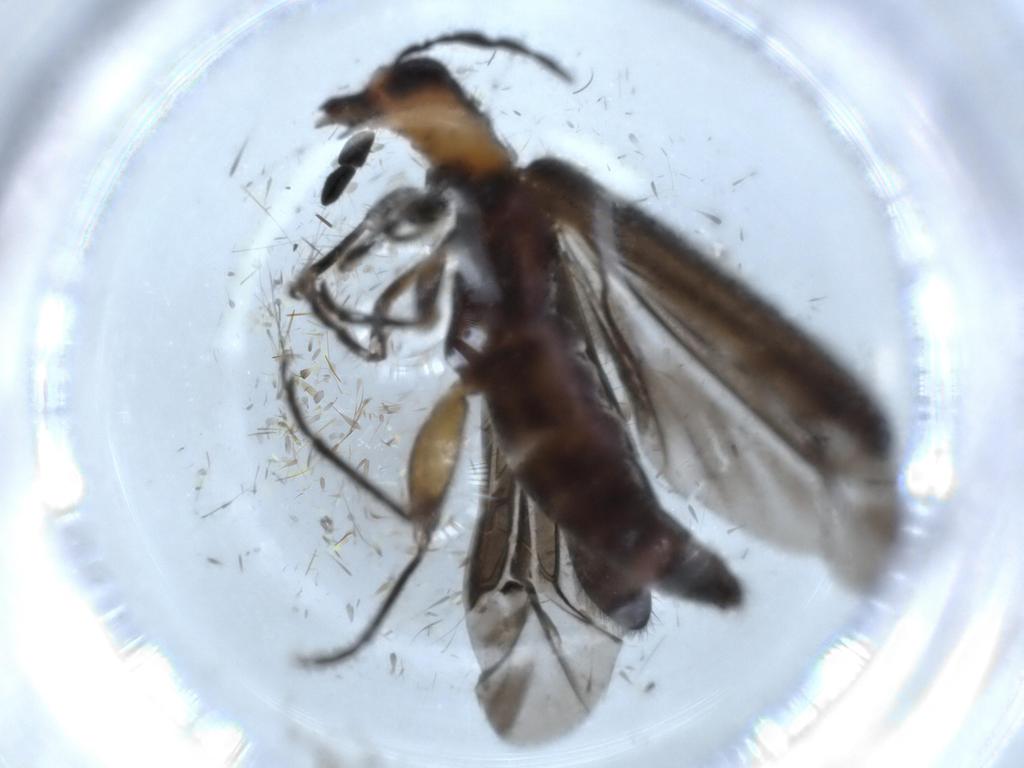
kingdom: Animalia
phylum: Arthropoda
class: Insecta
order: Coleoptera
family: Cleridae
